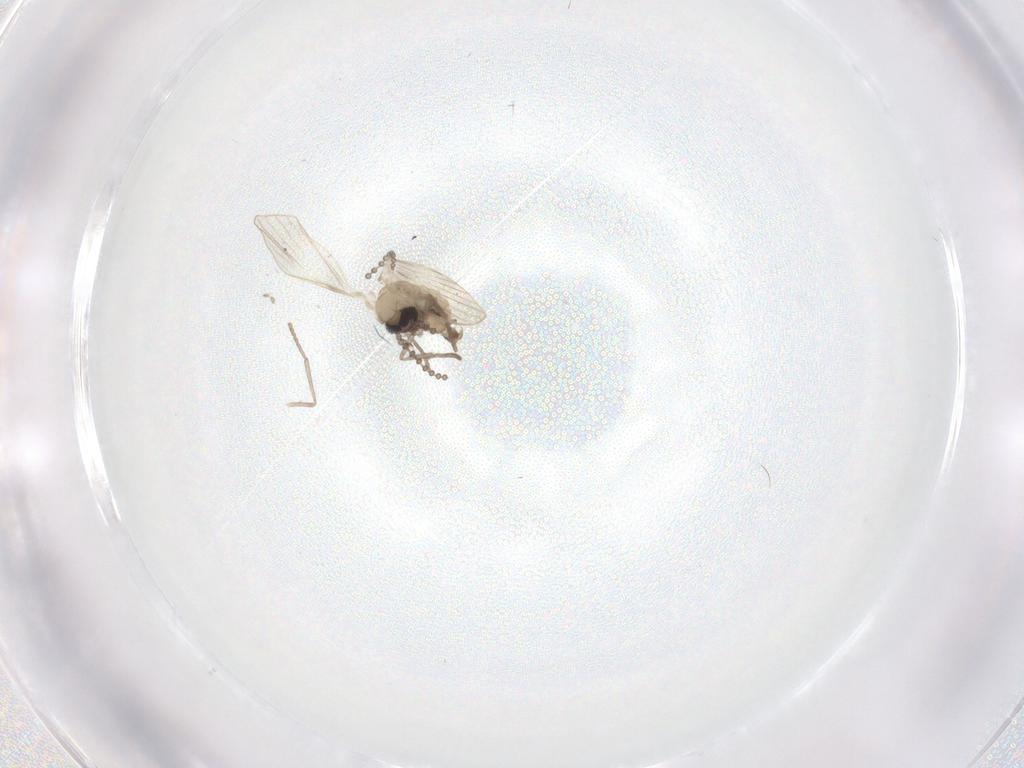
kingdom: Animalia
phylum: Arthropoda
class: Insecta
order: Diptera
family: Psychodidae
